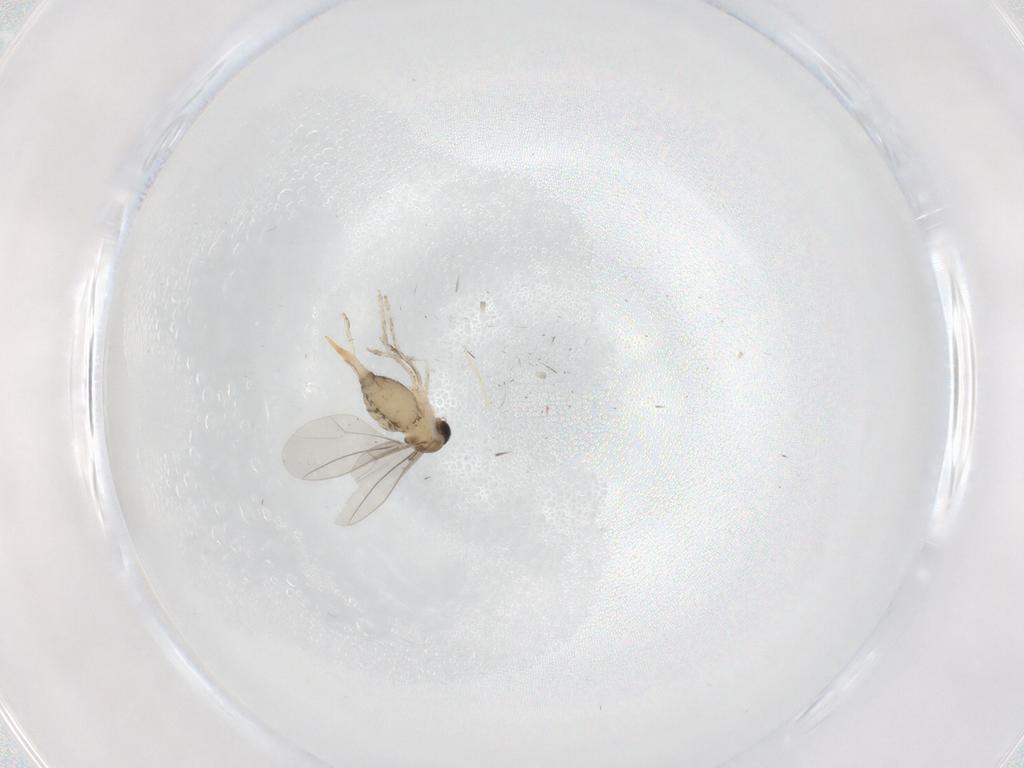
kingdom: Animalia
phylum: Arthropoda
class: Insecta
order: Diptera
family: Cecidomyiidae
